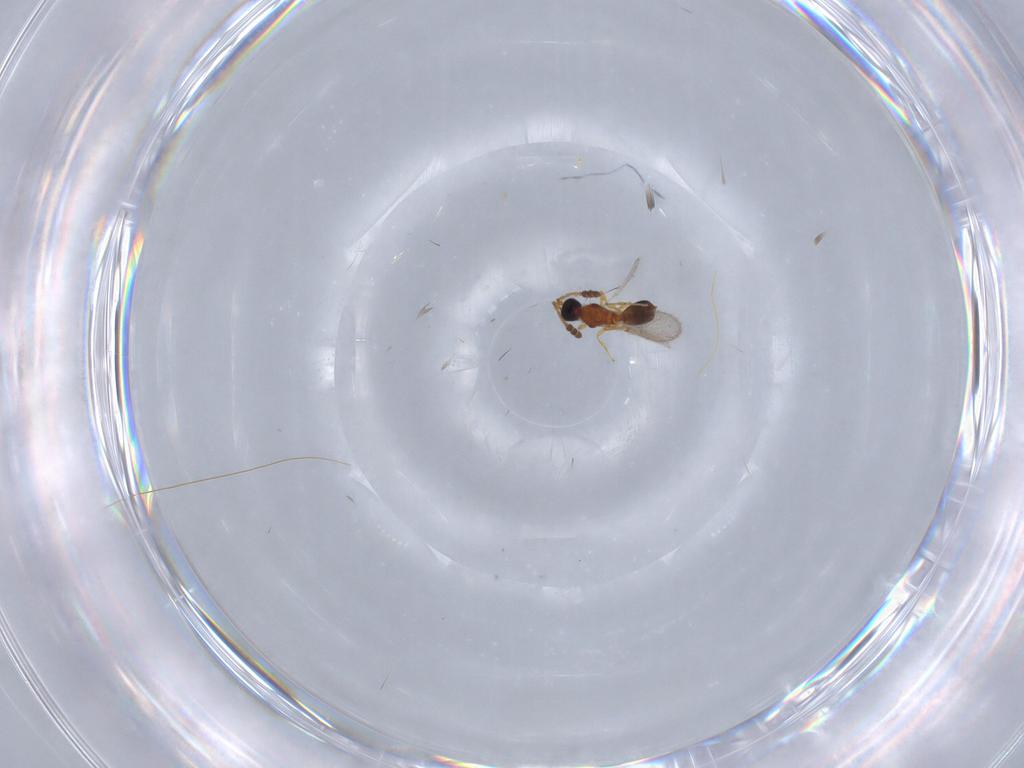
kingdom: Animalia
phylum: Arthropoda
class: Insecta
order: Hymenoptera
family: Diapriidae
